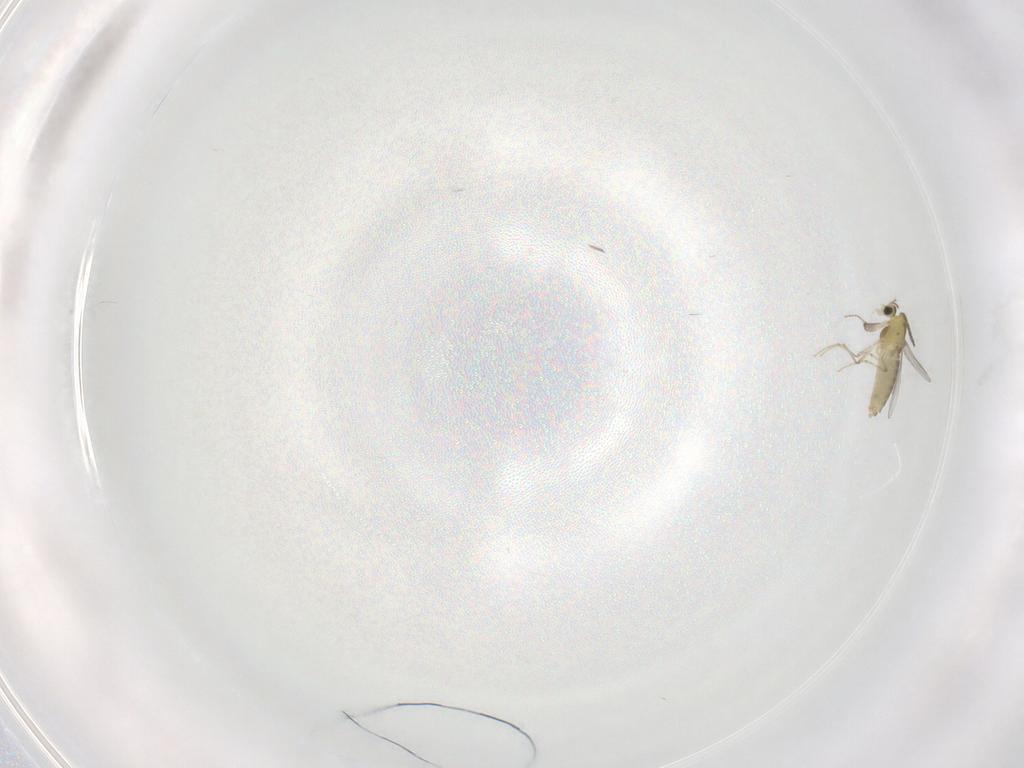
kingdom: Animalia
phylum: Arthropoda
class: Insecta
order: Diptera
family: Chironomidae
